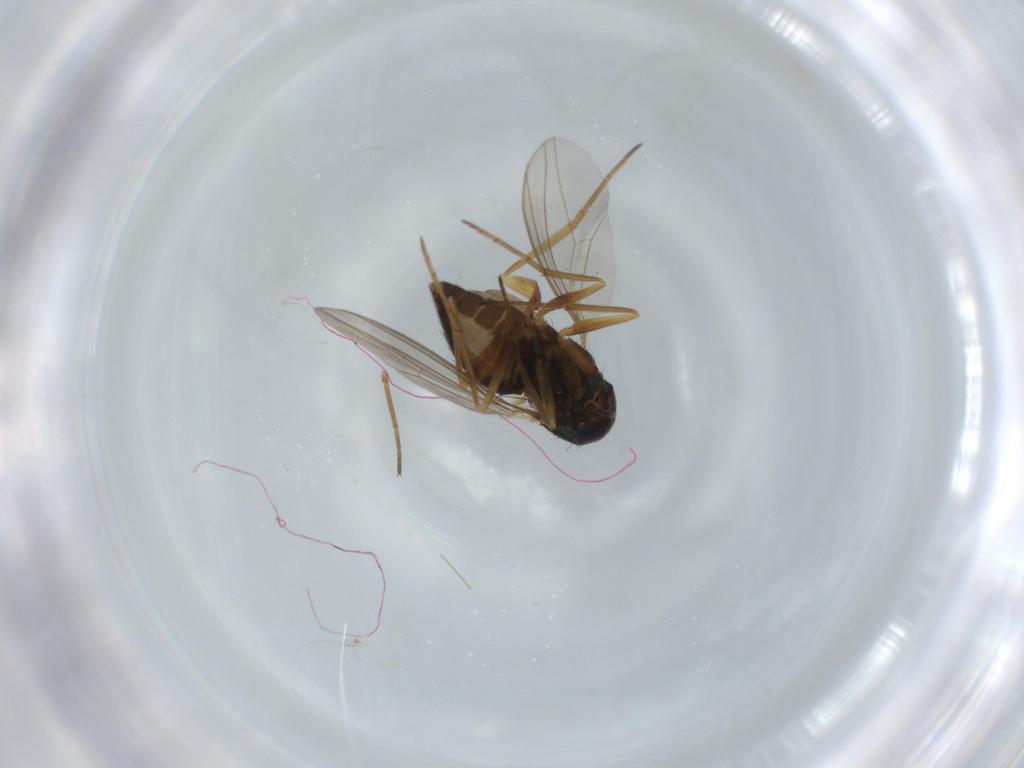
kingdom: Animalia
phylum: Arthropoda
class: Insecta
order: Diptera
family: Dolichopodidae
